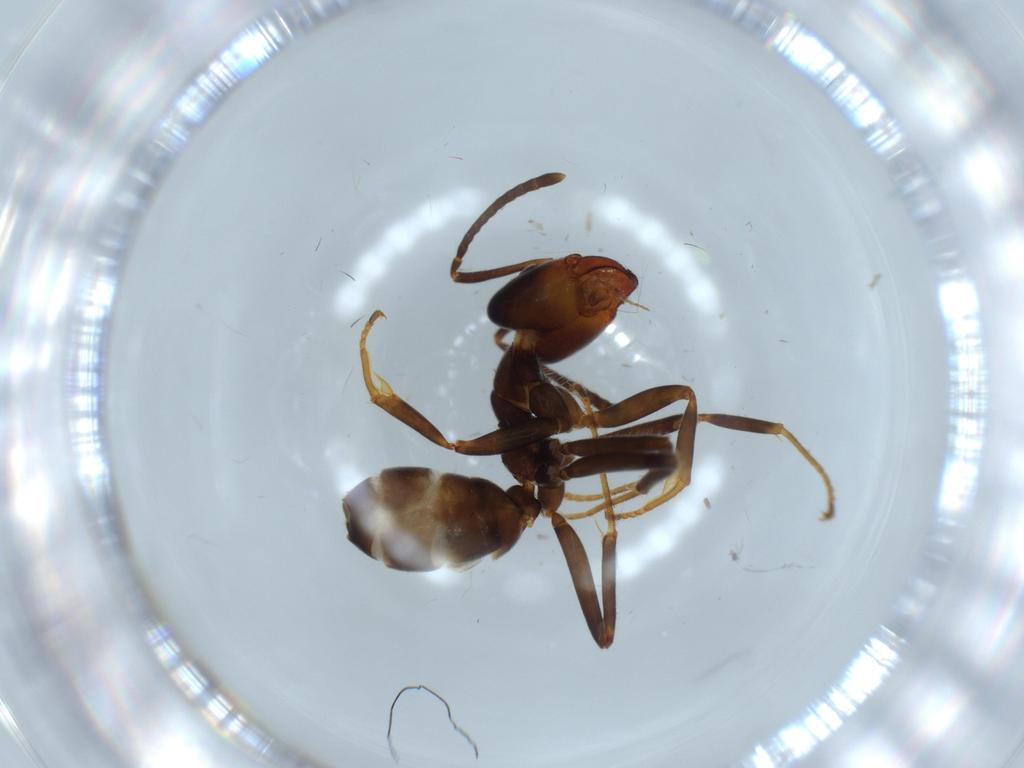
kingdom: Animalia
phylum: Arthropoda
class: Insecta
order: Hymenoptera
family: Formicidae
